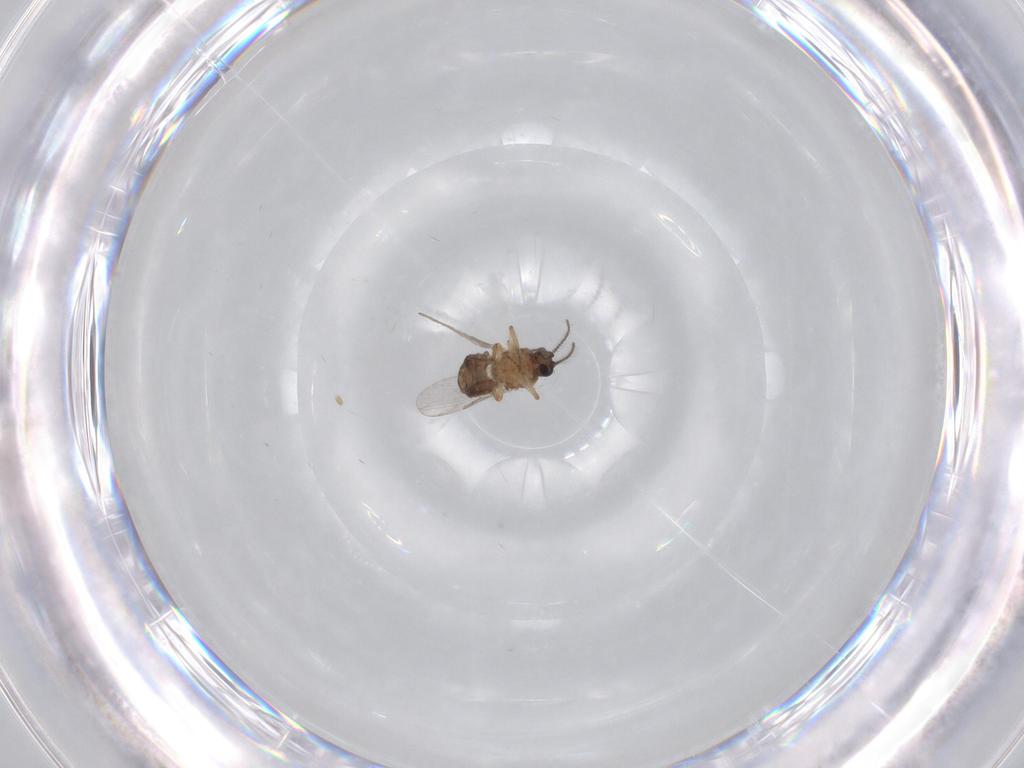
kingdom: Animalia
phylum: Arthropoda
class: Insecta
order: Diptera
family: Ceratopogonidae
